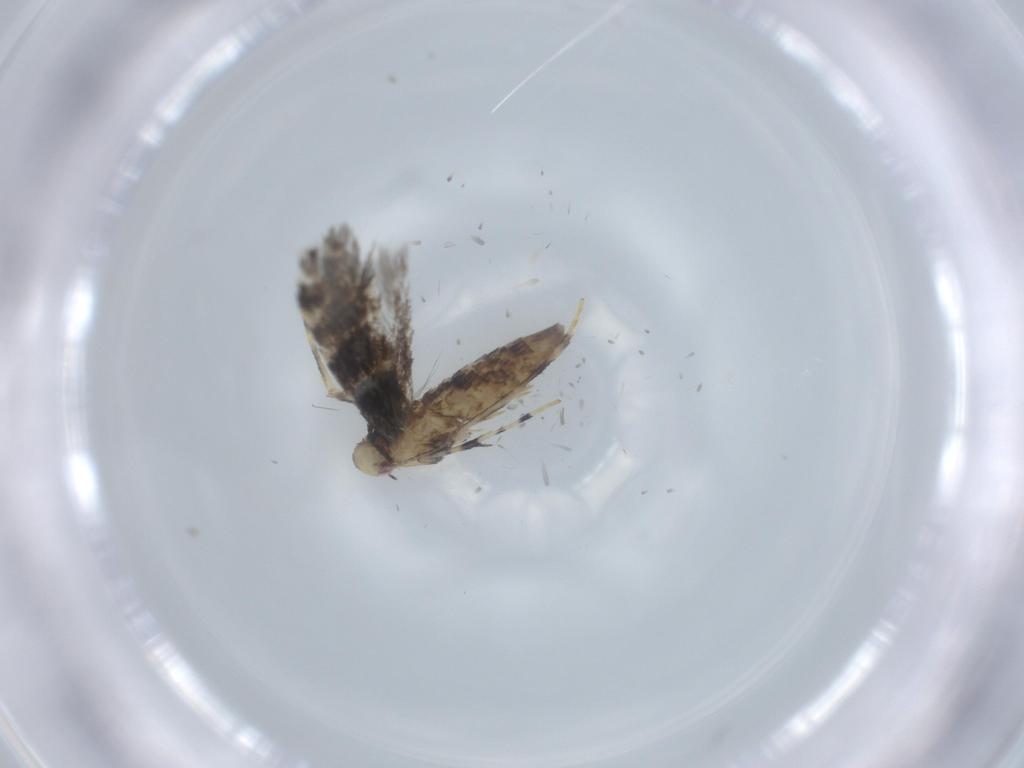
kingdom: Animalia
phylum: Arthropoda
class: Insecta
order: Lepidoptera
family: Gracillariidae
